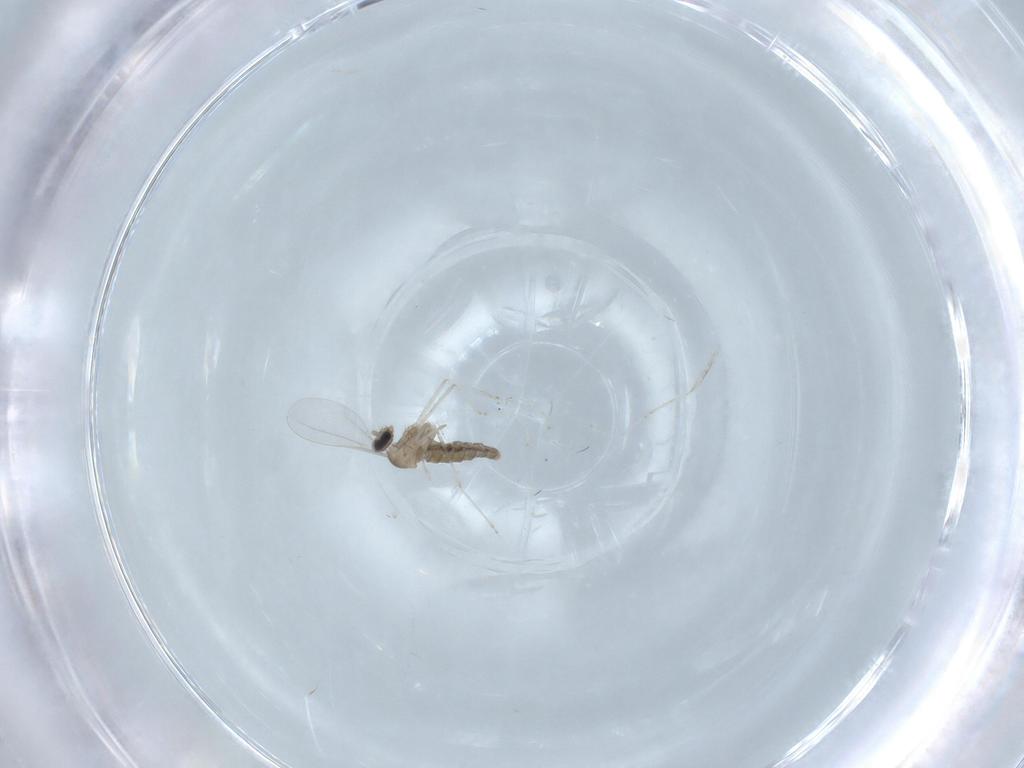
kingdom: Animalia
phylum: Arthropoda
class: Insecta
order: Diptera
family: Cecidomyiidae
